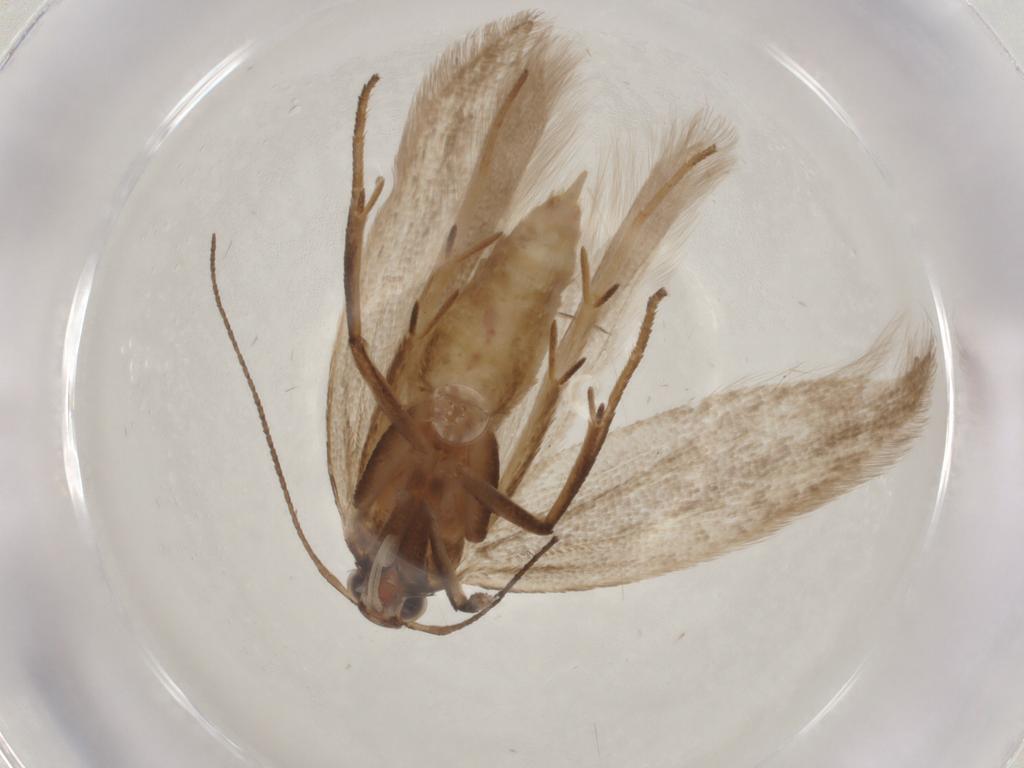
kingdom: Animalia
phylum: Arthropoda
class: Insecta
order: Lepidoptera
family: Gelechiidae
